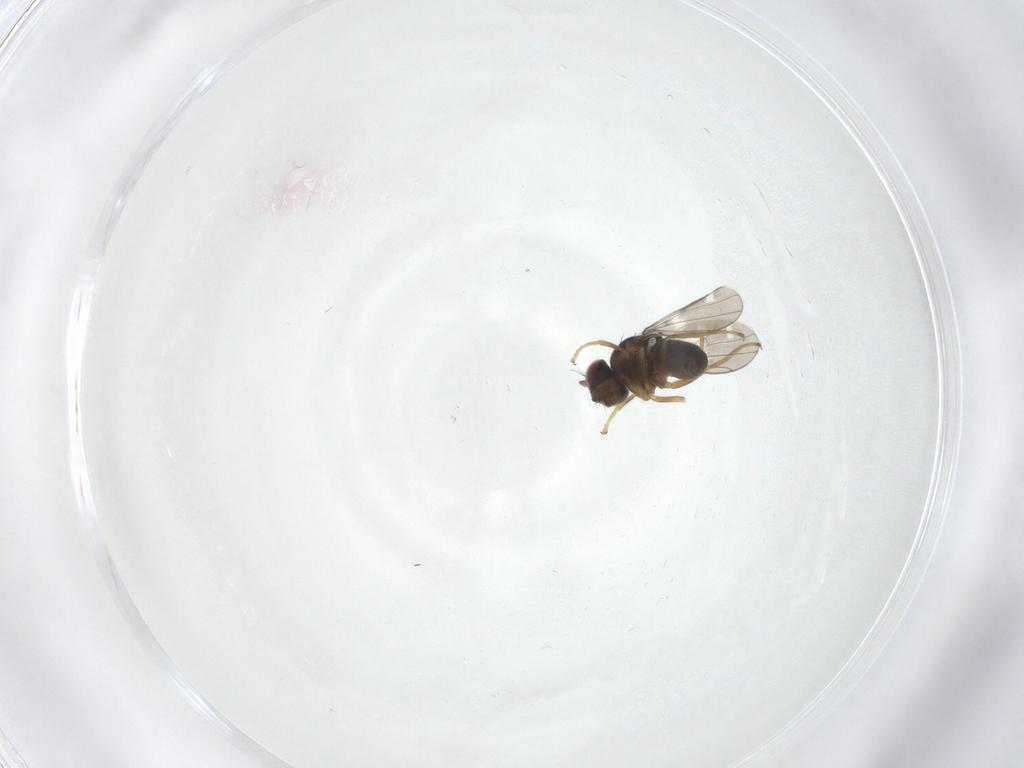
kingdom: Animalia
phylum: Arthropoda
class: Insecta
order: Diptera
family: Ephydridae
